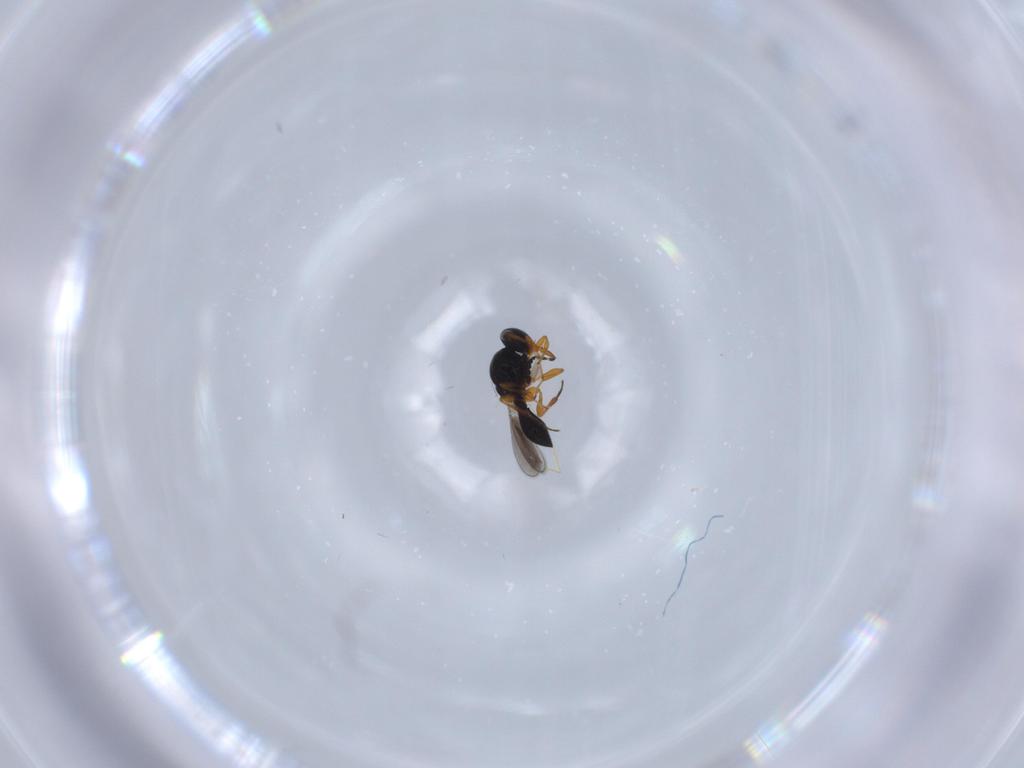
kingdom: Animalia
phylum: Arthropoda
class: Insecta
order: Hymenoptera
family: Platygastridae
